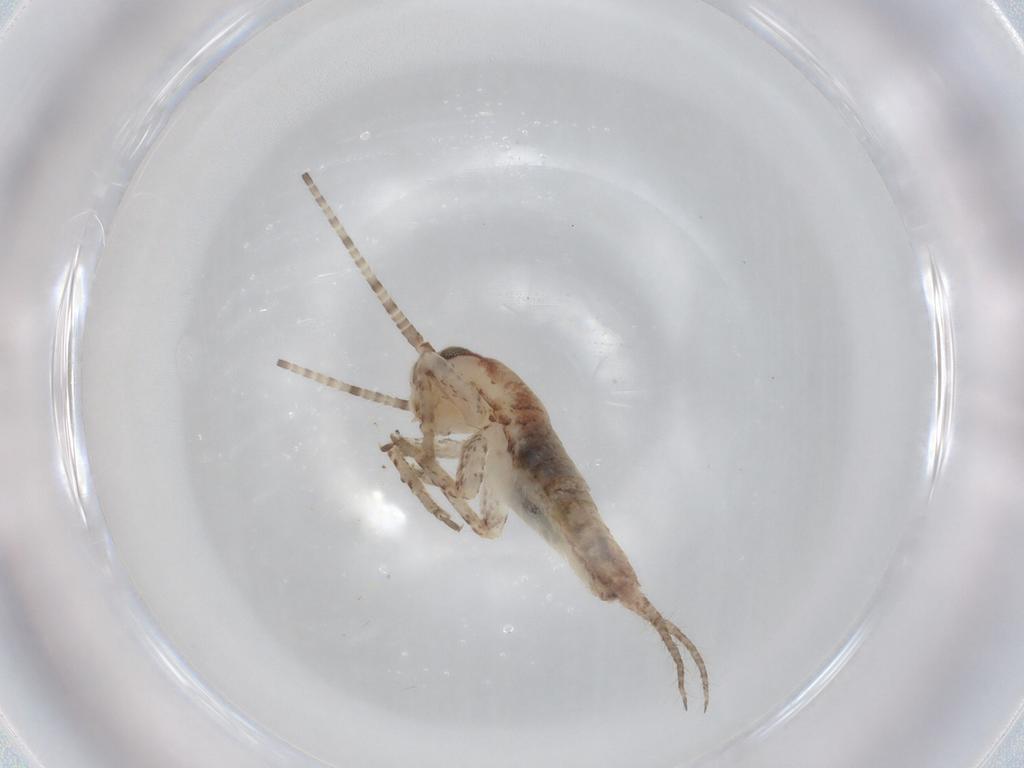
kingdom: Animalia
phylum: Arthropoda
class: Insecta
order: Orthoptera
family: Mogoplistidae
